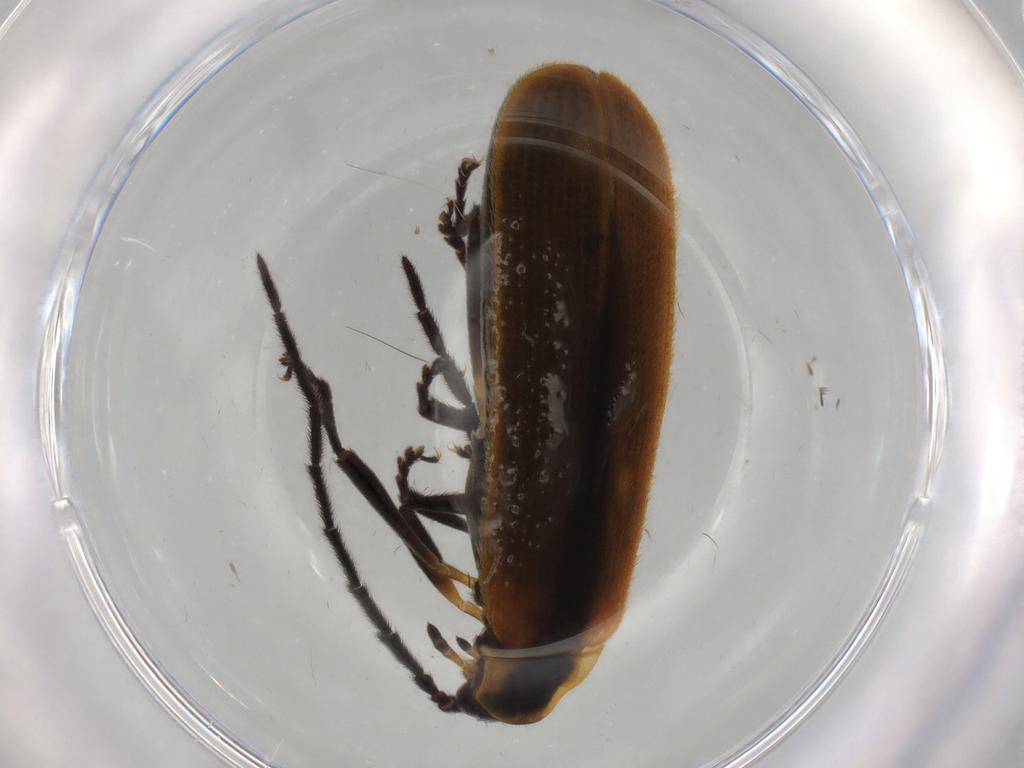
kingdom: Animalia
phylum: Arthropoda
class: Insecta
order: Coleoptera
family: Lycidae
